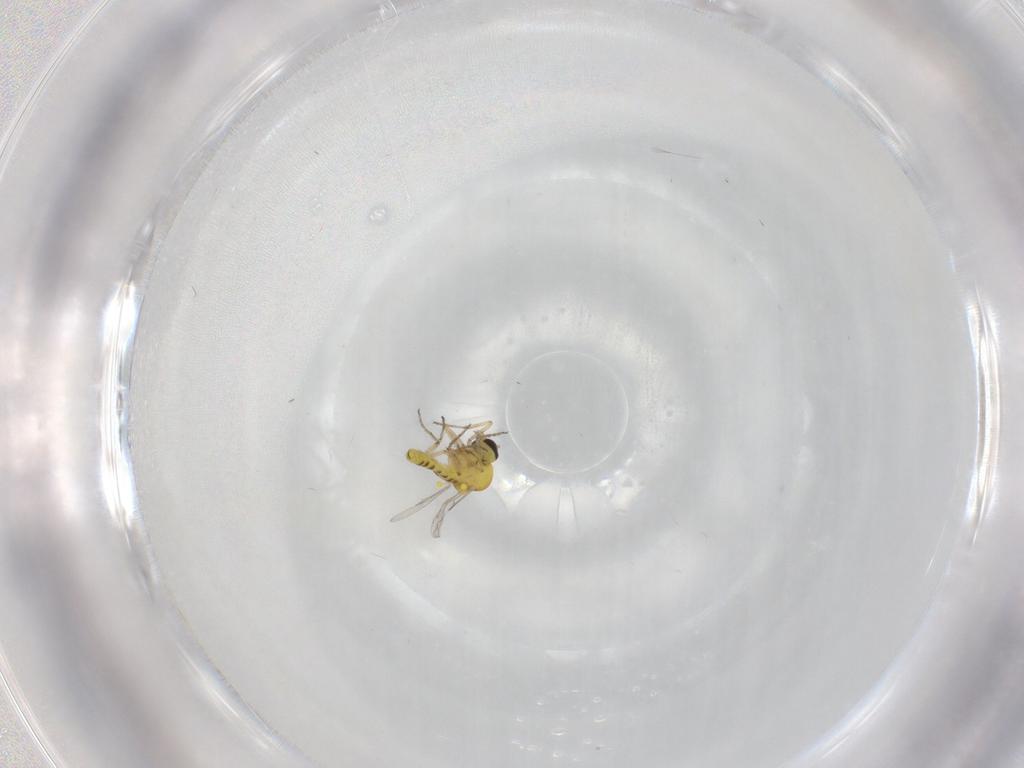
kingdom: Animalia
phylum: Arthropoda
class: Insecta
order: Diptera
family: Ceratopogonidae
